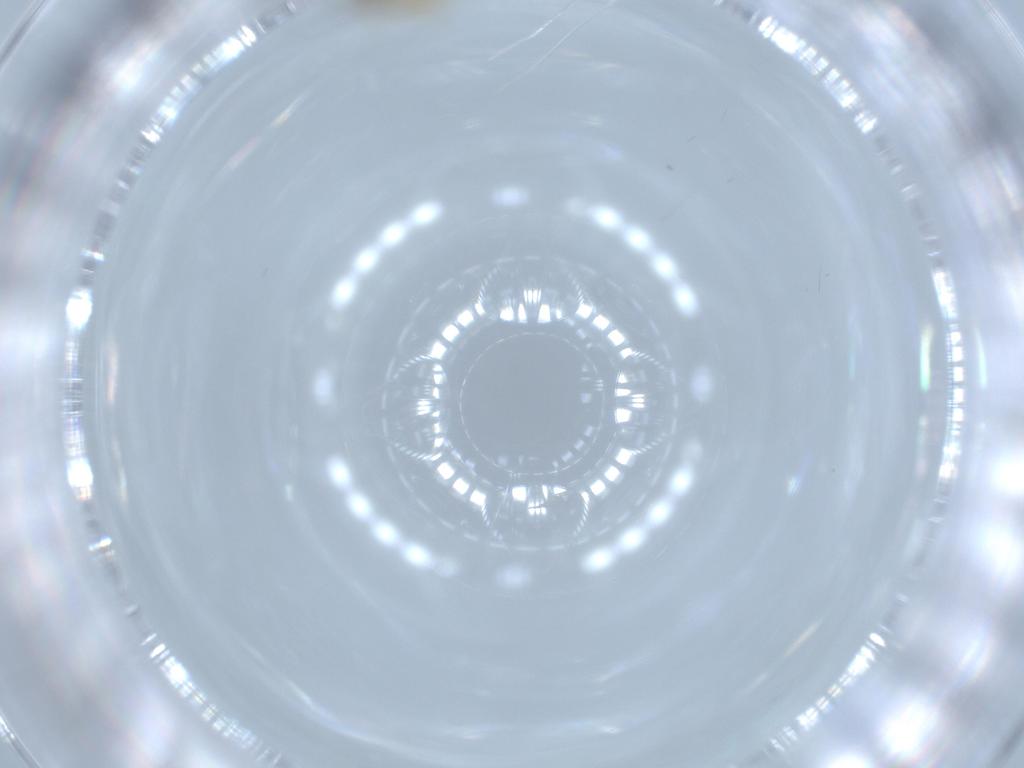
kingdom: Animalia
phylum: Arthropoda
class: Insecta
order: Diptera
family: Cecidomyiidae
